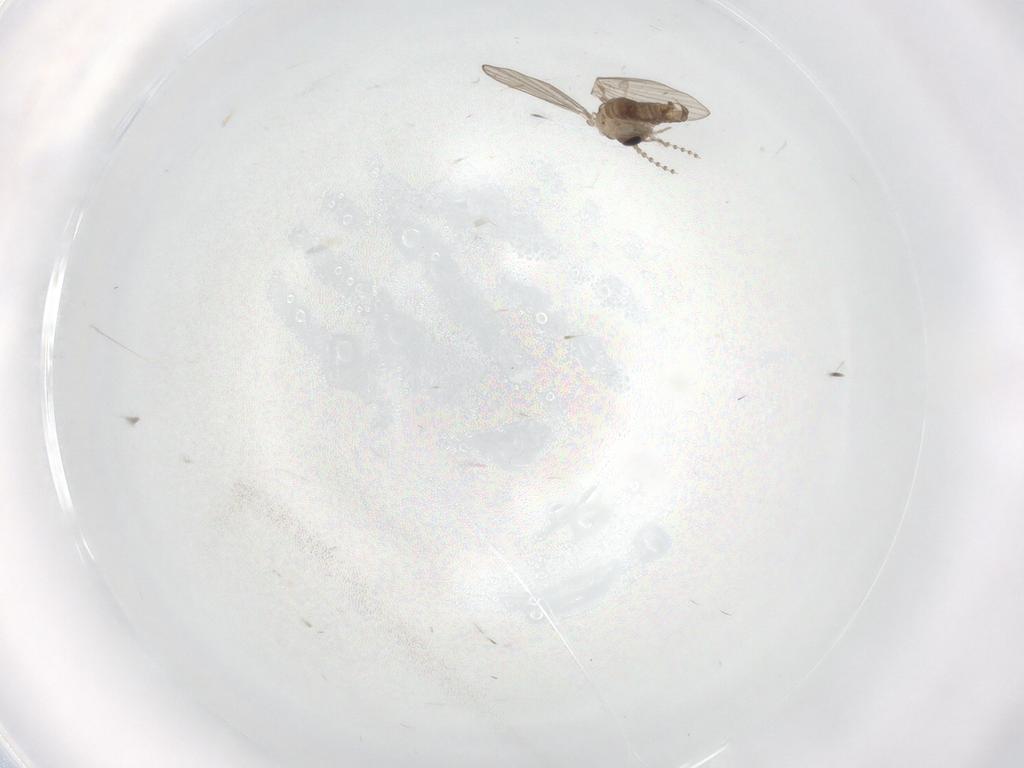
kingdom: Animalia
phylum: Arthropoda
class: Insecta
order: Diptera
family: Psychodidae
